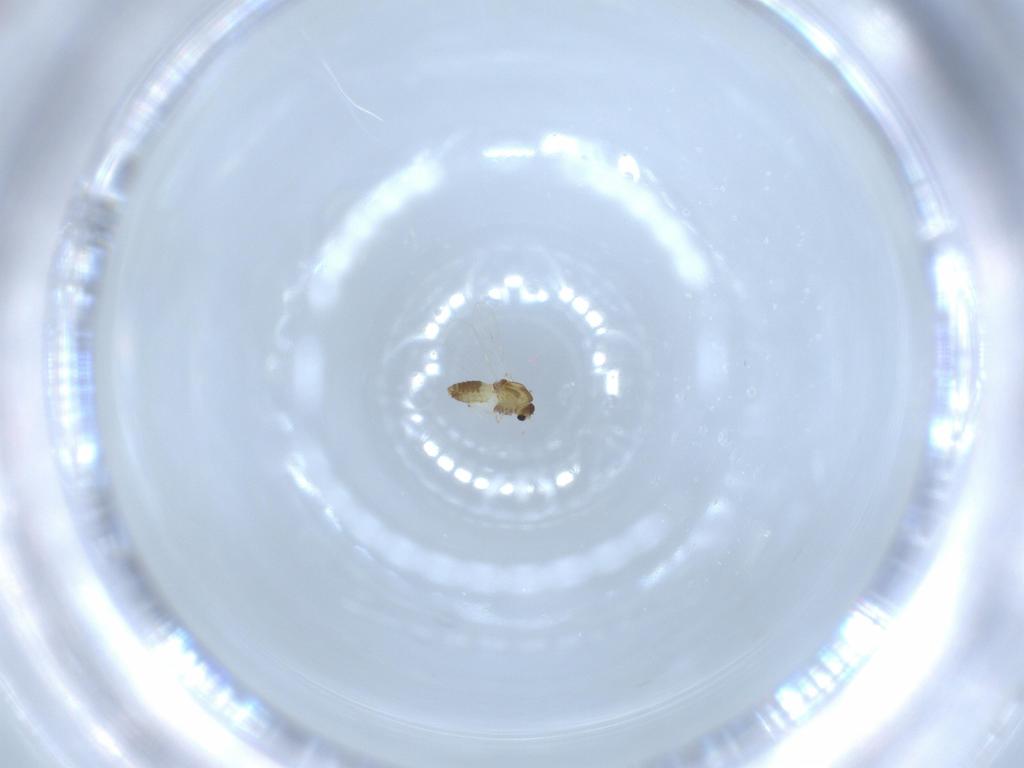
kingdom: Animalia
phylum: Arthropoda
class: Insecta
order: Diptera
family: Chironomidae
